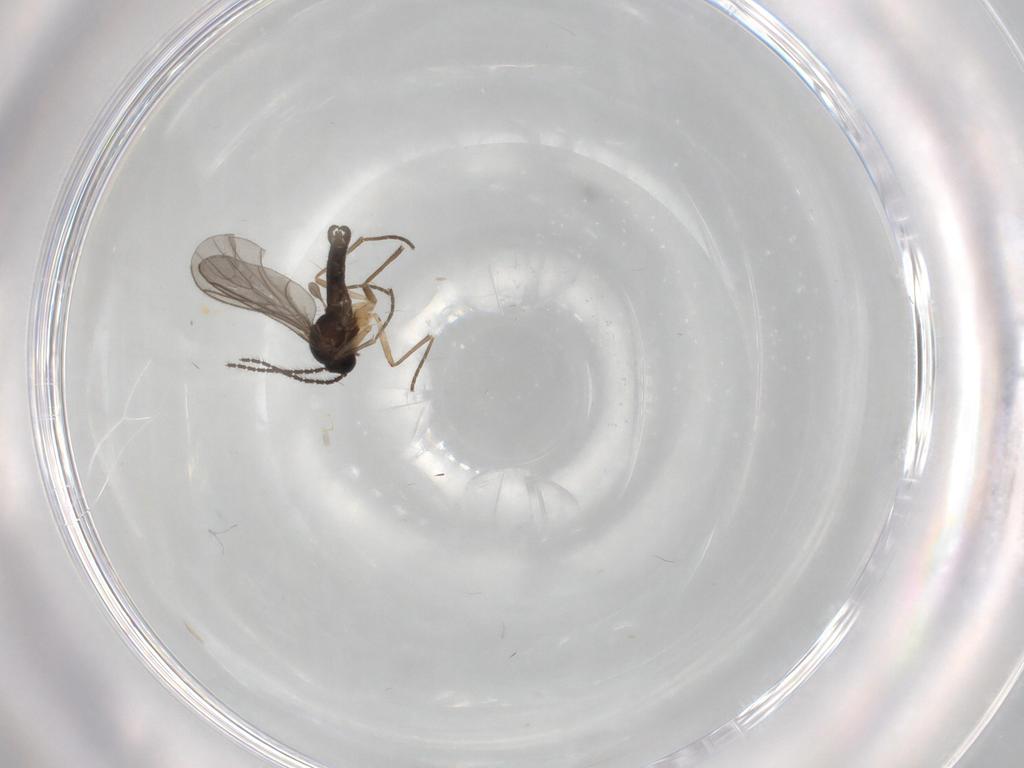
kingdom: Animalia
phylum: Arthropoda
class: Insecta
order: Diptera
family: Sciaridae
